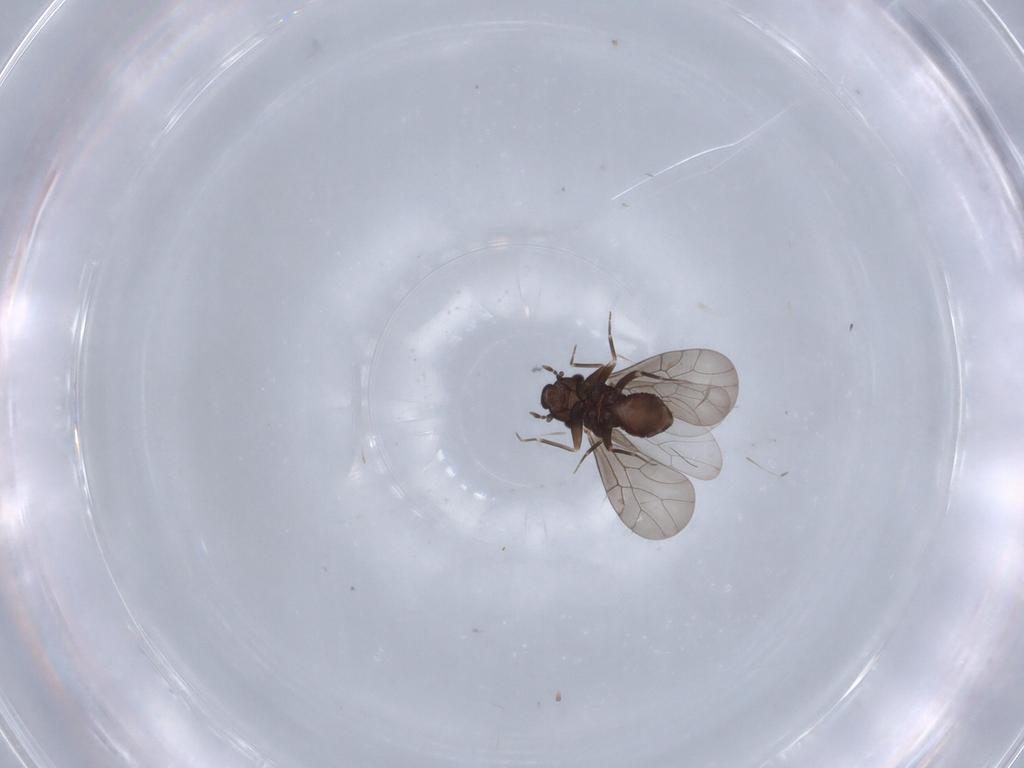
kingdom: Animalia
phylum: Arthropoda
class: Insecta
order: Psocodea
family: Lepidopsocidae
